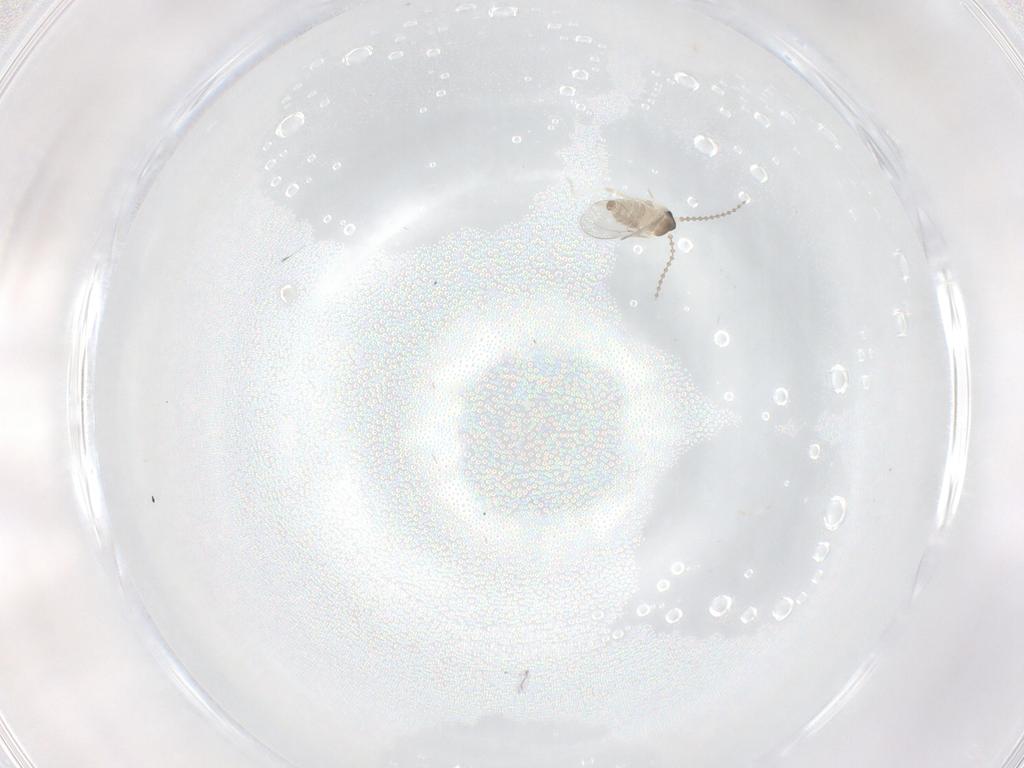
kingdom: Animalia
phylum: Arthropoda
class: Insecta
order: Diptera
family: Cecidomyiidae
